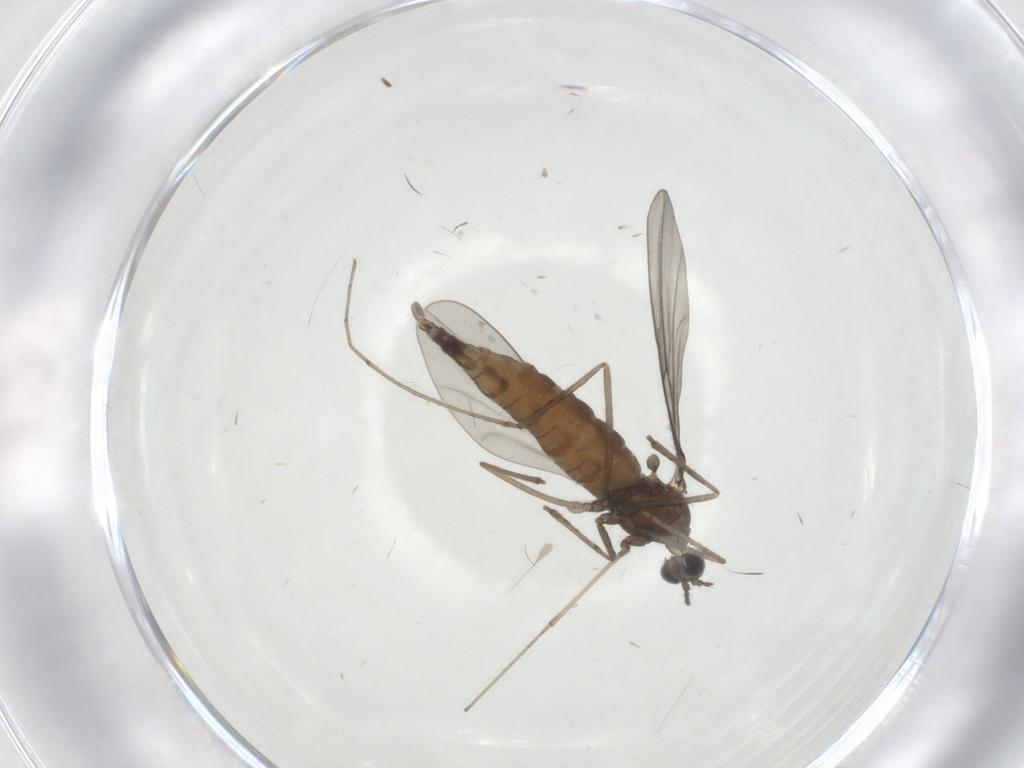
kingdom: Animalia
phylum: Arthropoda
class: Insecta
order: Diptera
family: Cecidomyiidae
